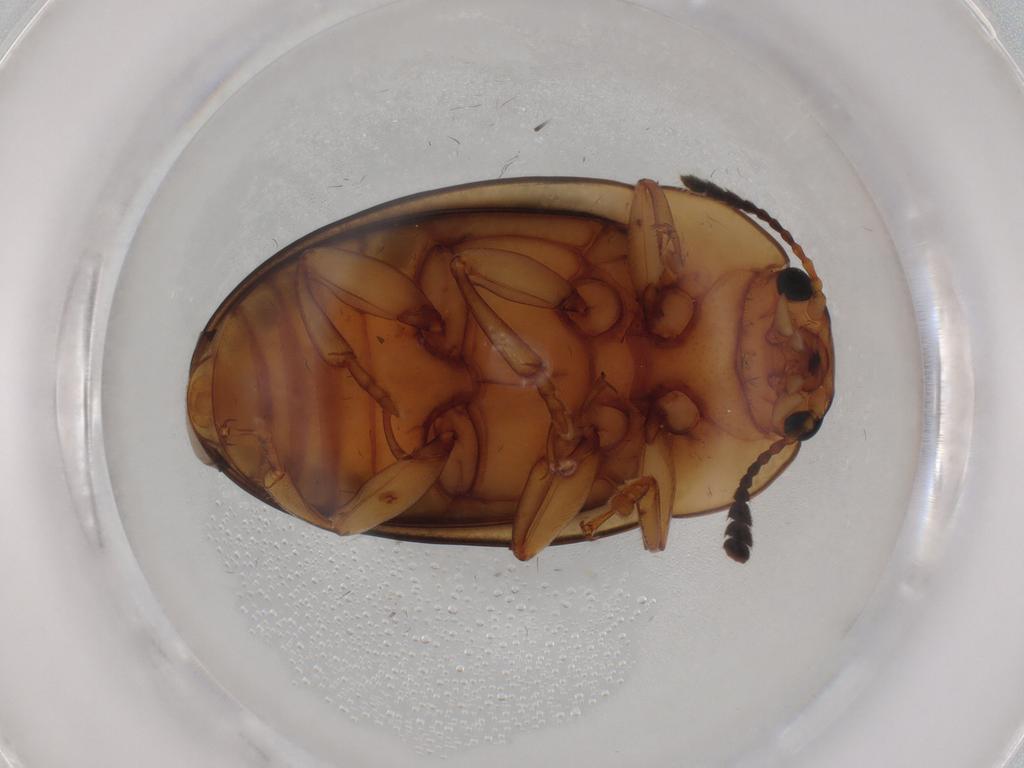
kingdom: Animalia
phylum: Arthropoda
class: Insecta
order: Coleoptera
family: Erotylidae
